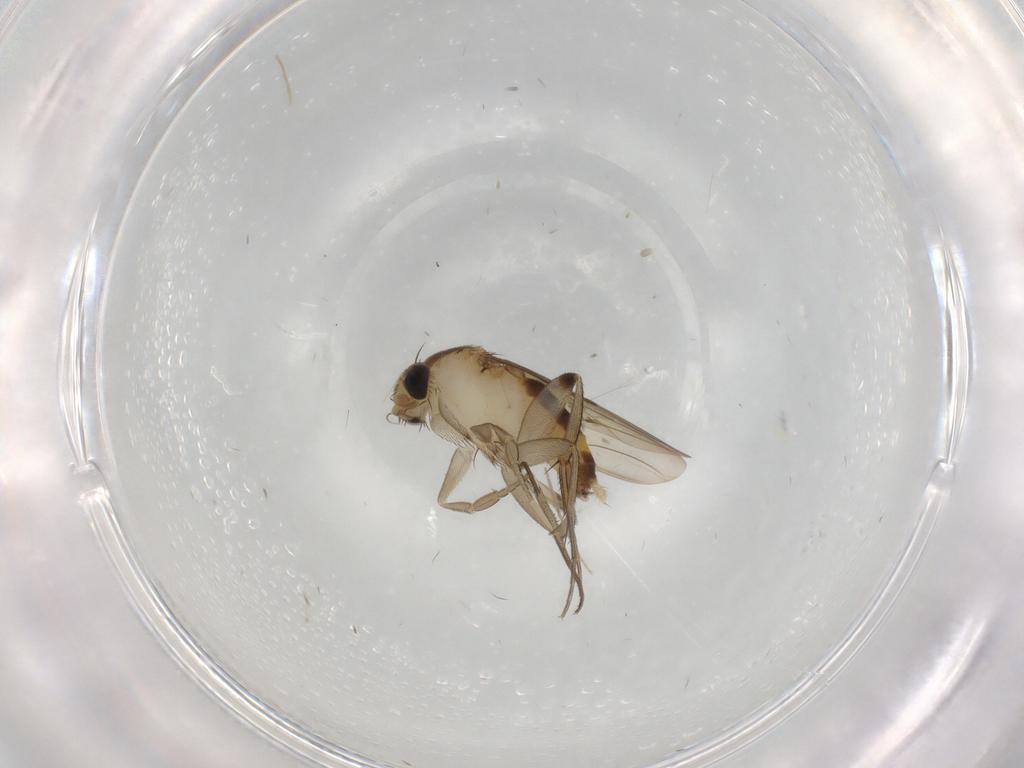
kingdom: Animalia
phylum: Arthropoda
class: Insecta
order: Diptera
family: Phoridae
